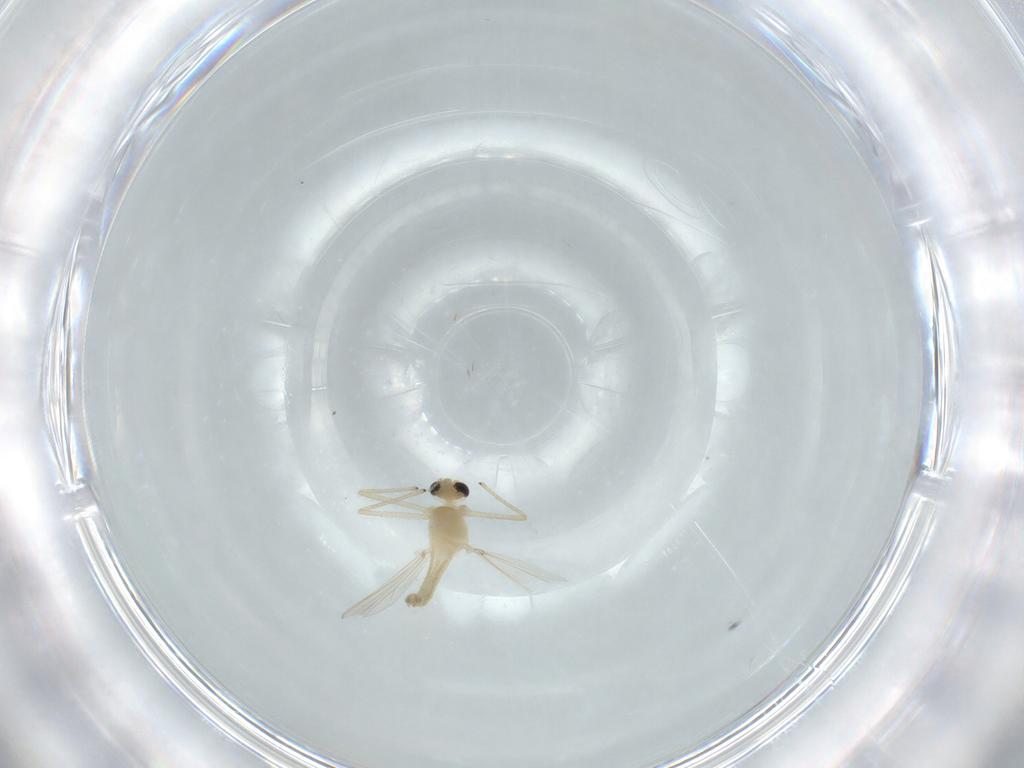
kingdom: Animalia
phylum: Arthropoda
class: Insecta
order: Diptera
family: Chironomidae
